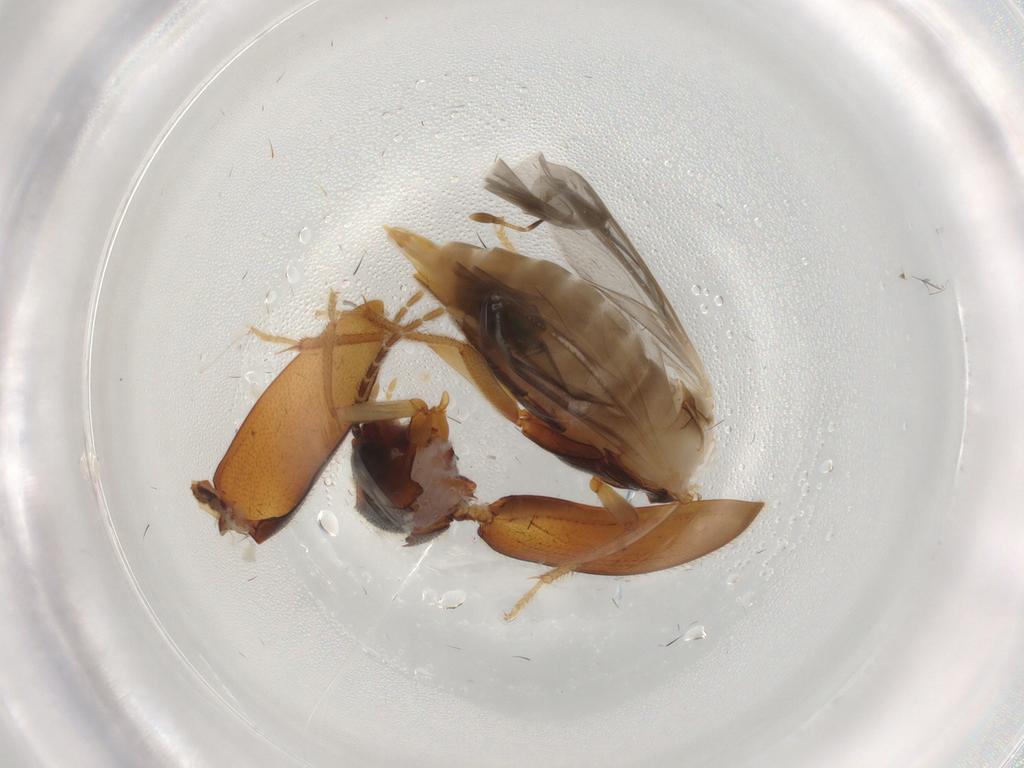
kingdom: Animalia
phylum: Arthropoda
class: Insecta
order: Coleoptera
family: Ptilodactylidae
